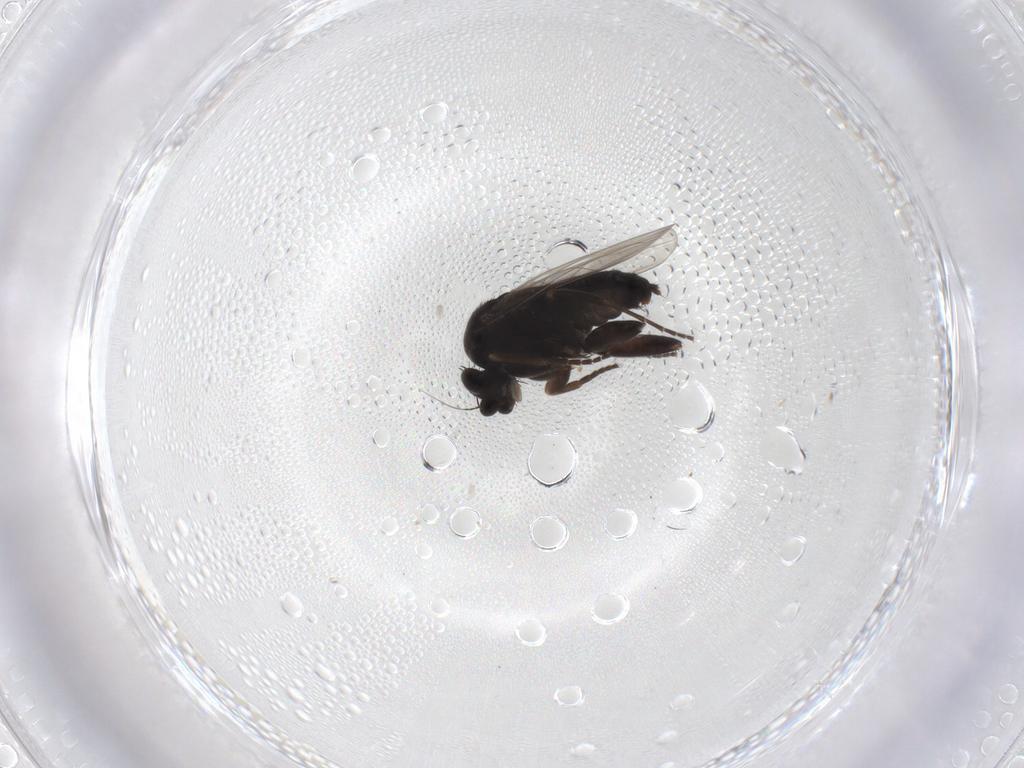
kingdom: Animalia
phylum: Arthropoda
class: Insecta
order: Diptera
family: Phoridae
